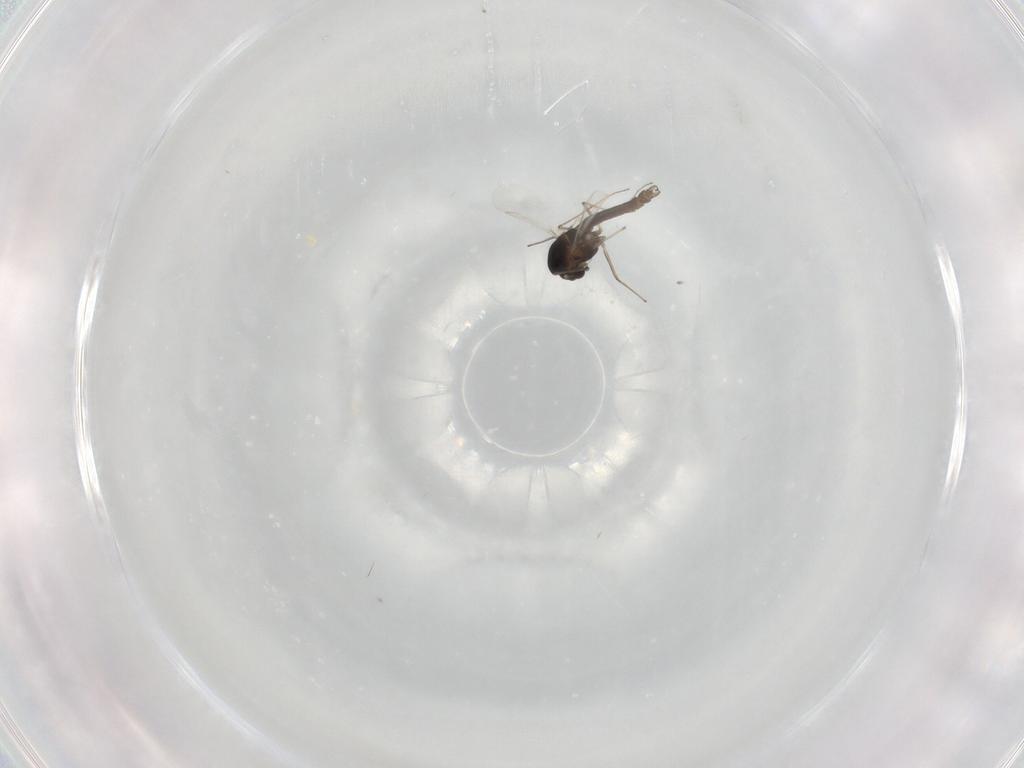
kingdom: Animalia
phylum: Arthropoda
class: Insecta
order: Diptera
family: Chironomidae
